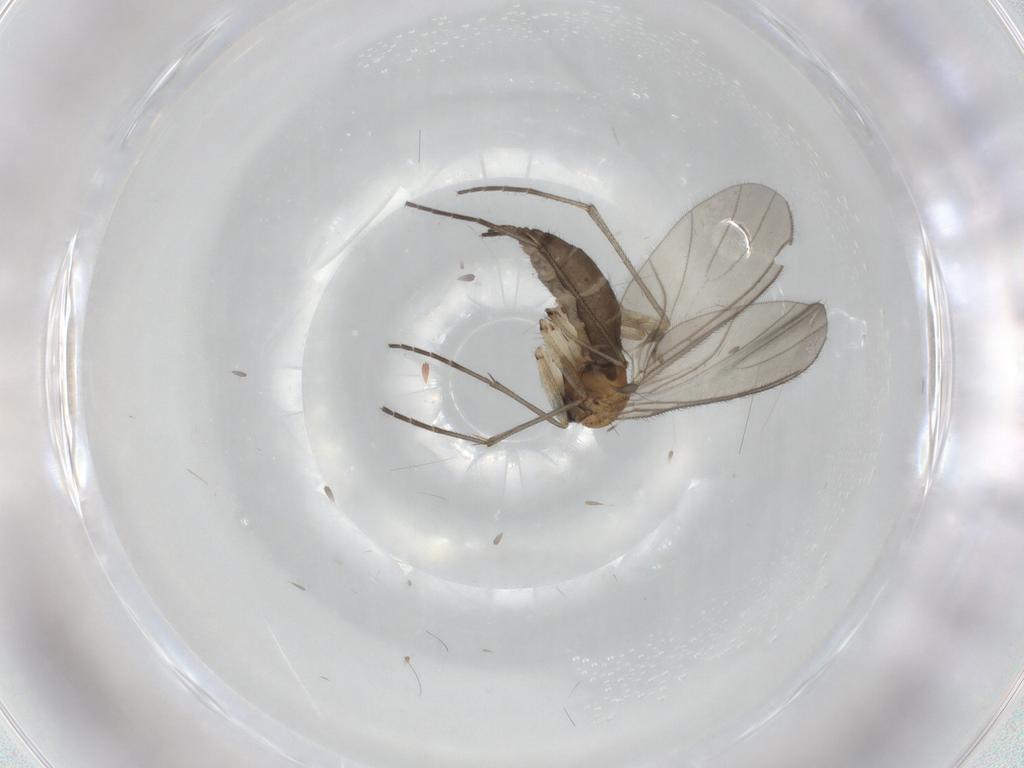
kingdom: Animalia
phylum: Arthropoda
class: Insecta
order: Diptera
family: Sciaridae
